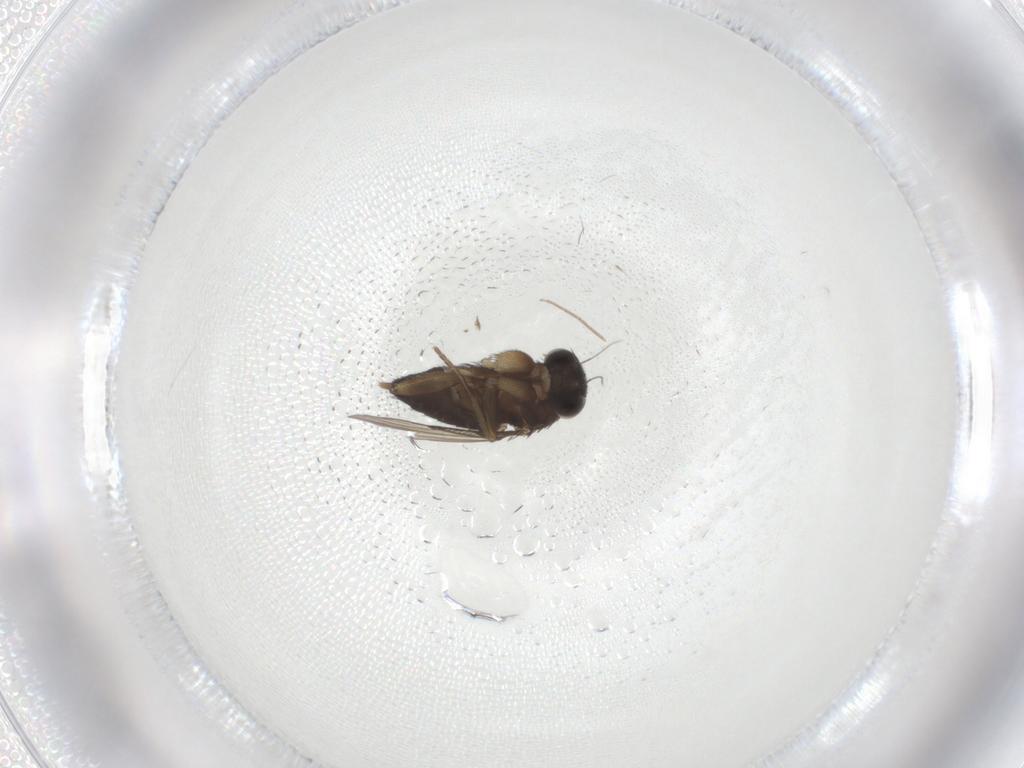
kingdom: Animalia
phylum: Arthropoda
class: Insecta
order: Diptera
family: Phoridae
